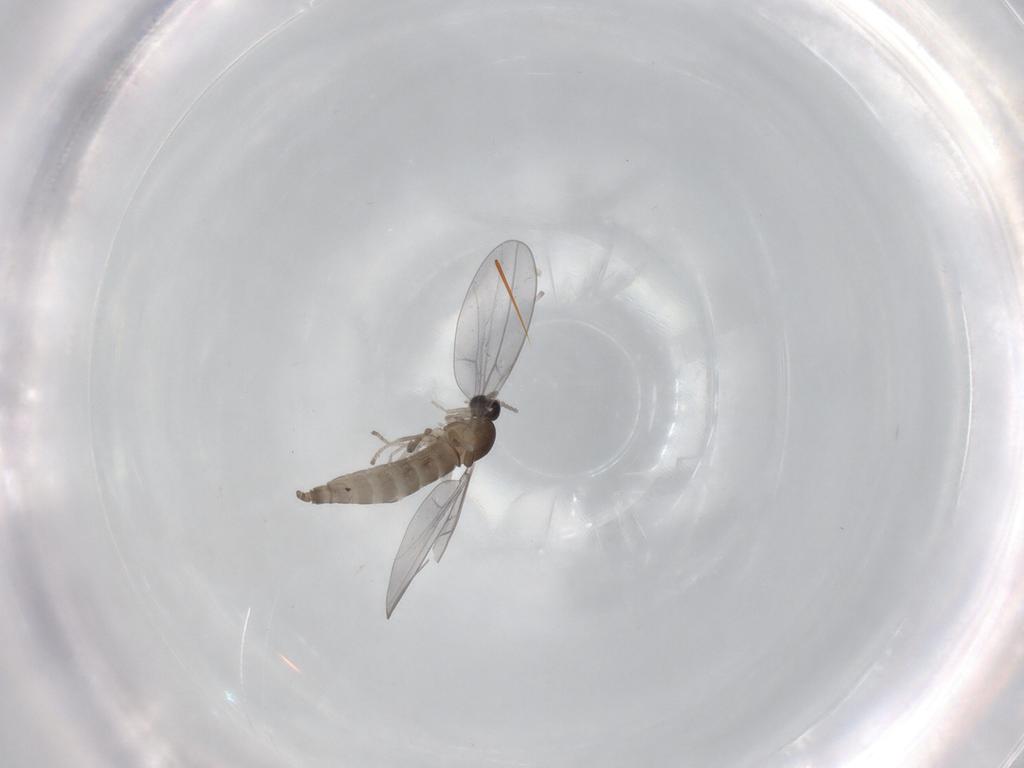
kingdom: Animalia
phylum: Arthropoda
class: Insecta
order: Diptera
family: Cecidomyiidae
